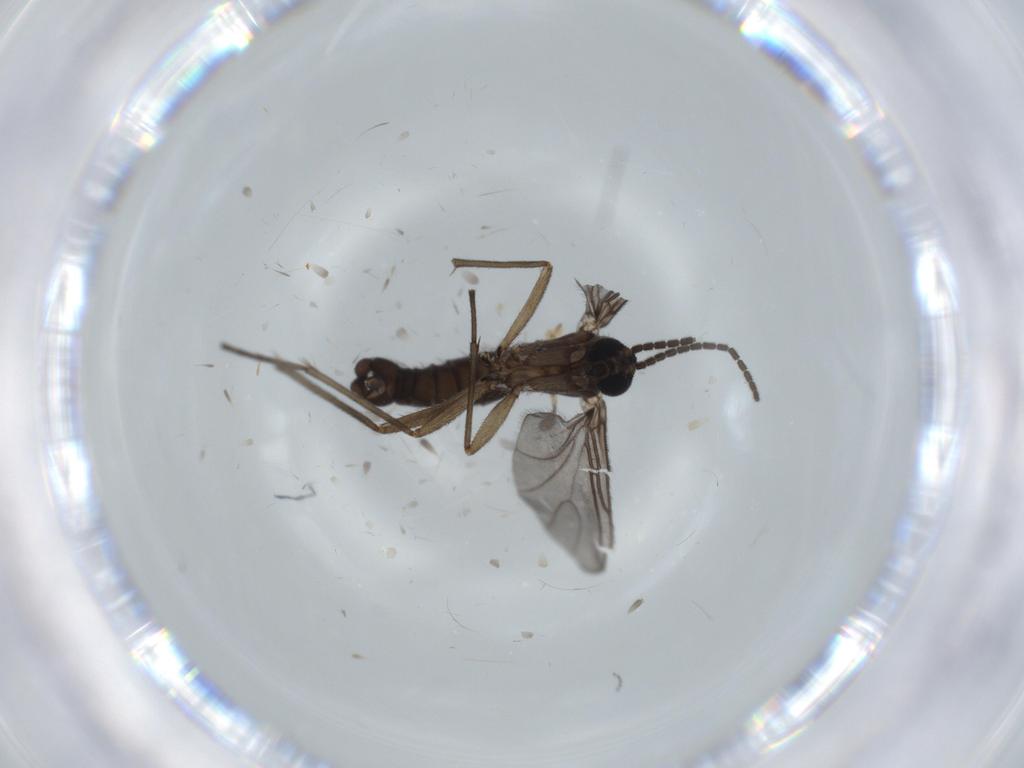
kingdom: Animalia
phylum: Arthropoda
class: Insecta
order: Diptera
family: Sciaridae
